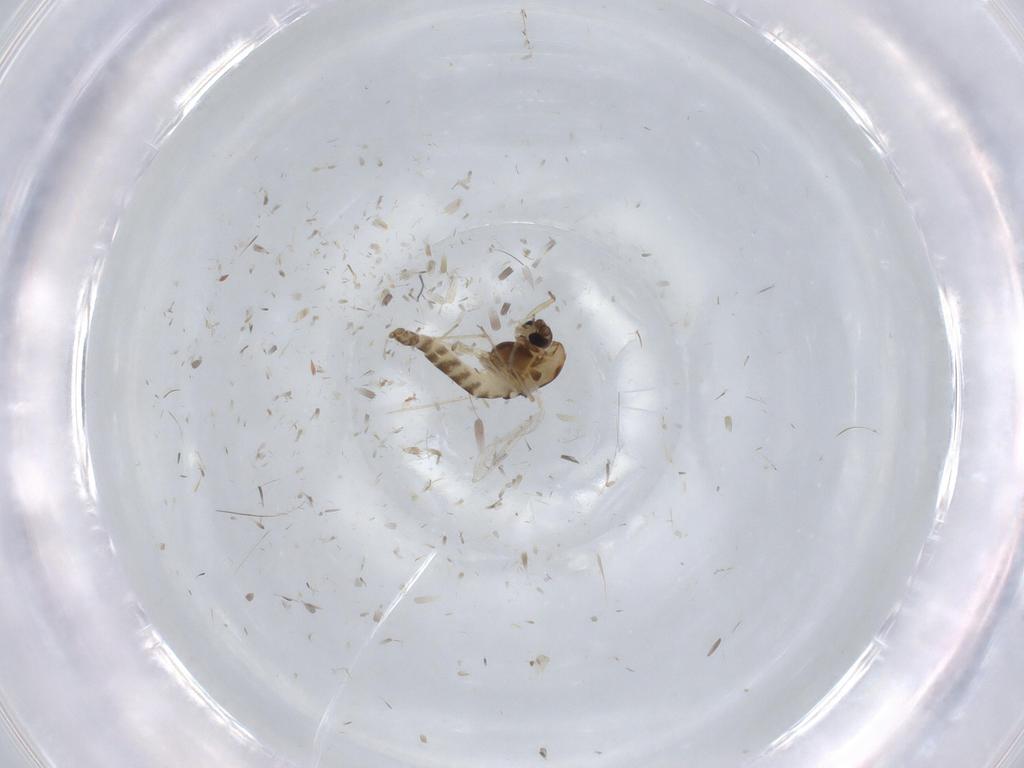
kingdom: Animalia
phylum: Arthropoda
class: Insecta
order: Diptera
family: Chironomidae
